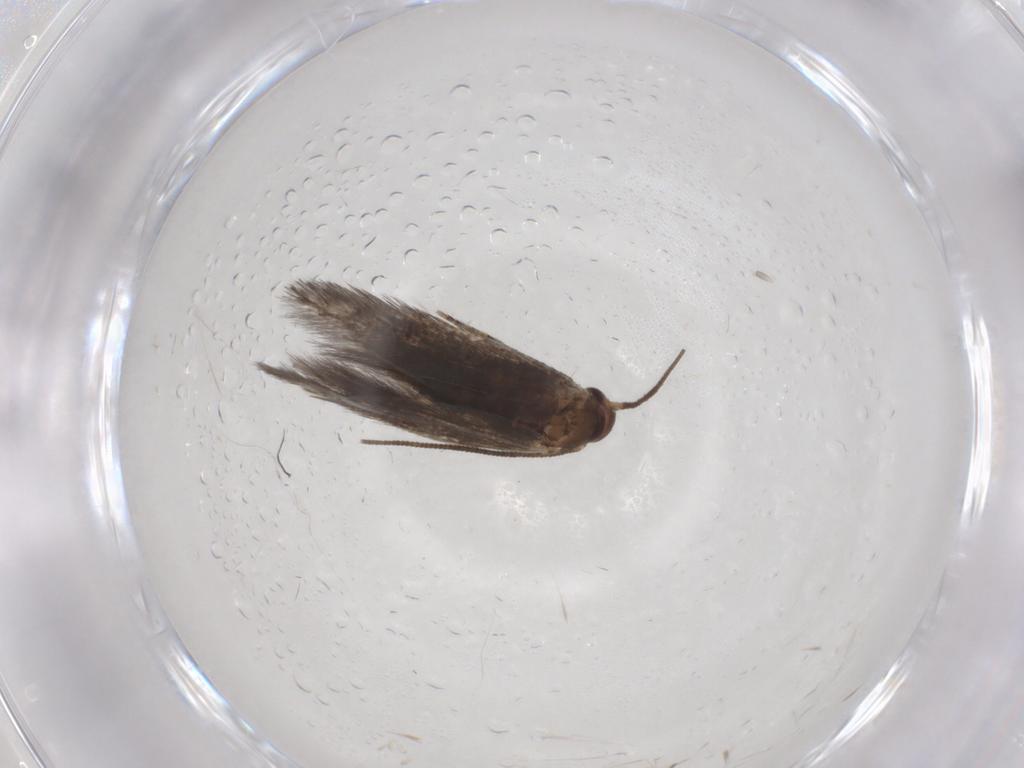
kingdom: Animalia
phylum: Arthropoda
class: Insecta
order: Lepidoptera
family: Elachistidae
